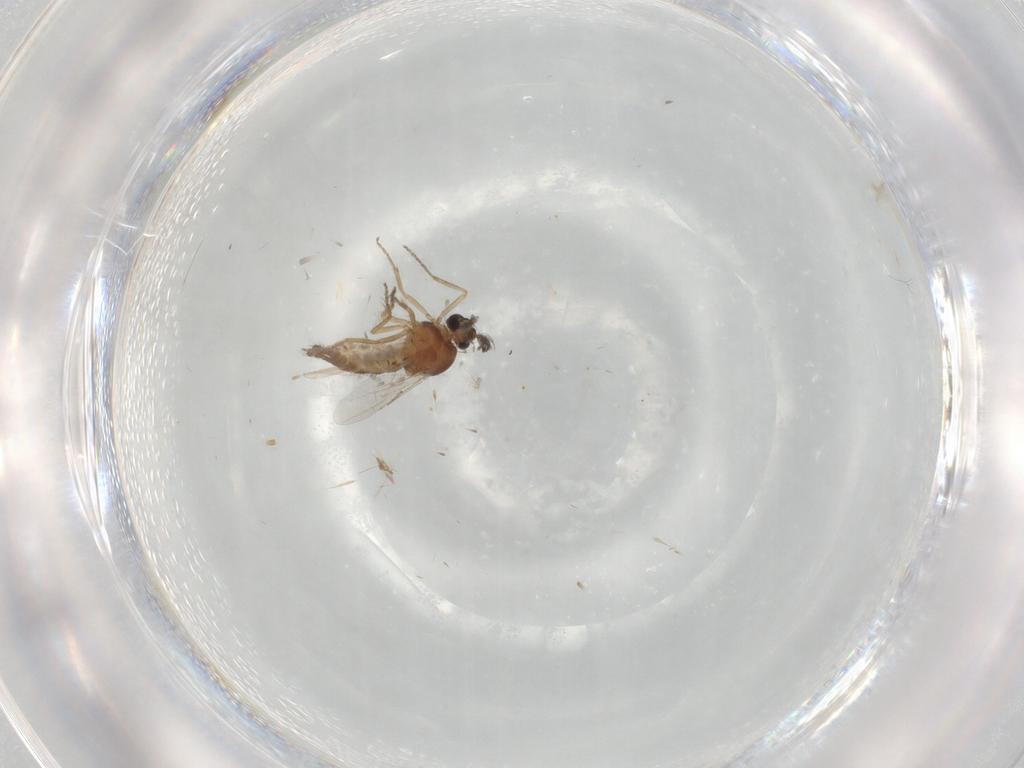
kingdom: Animalia
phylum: Arthropoda
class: Insecta
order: Diptera
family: Ceratopogonidae
